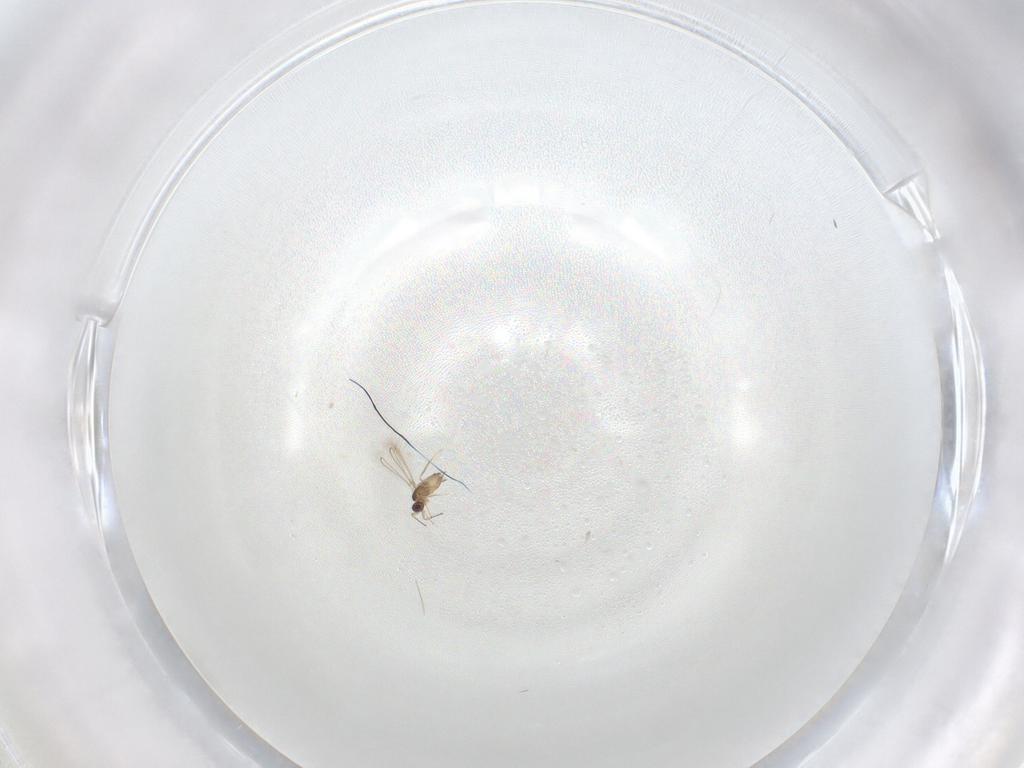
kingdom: Animalia
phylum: Arthropoda
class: Insecta
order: Hymenoptera
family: Mymaridae
